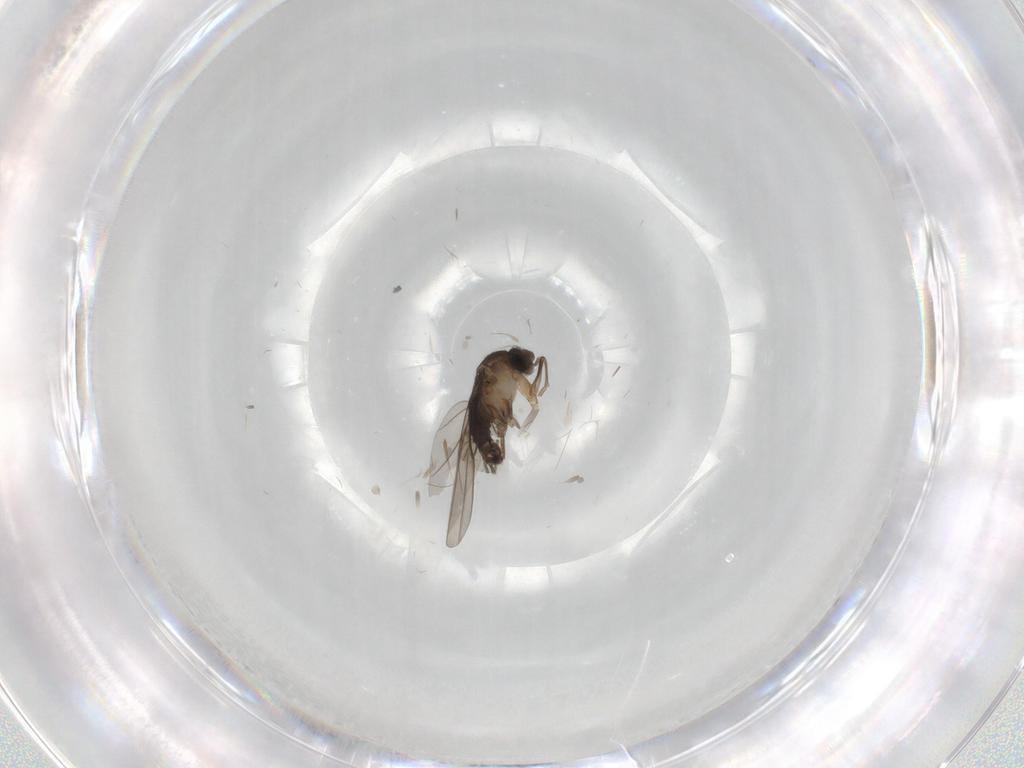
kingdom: Animalia
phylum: Arthropoda
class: Insecta
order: Diptera
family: Phoridae
